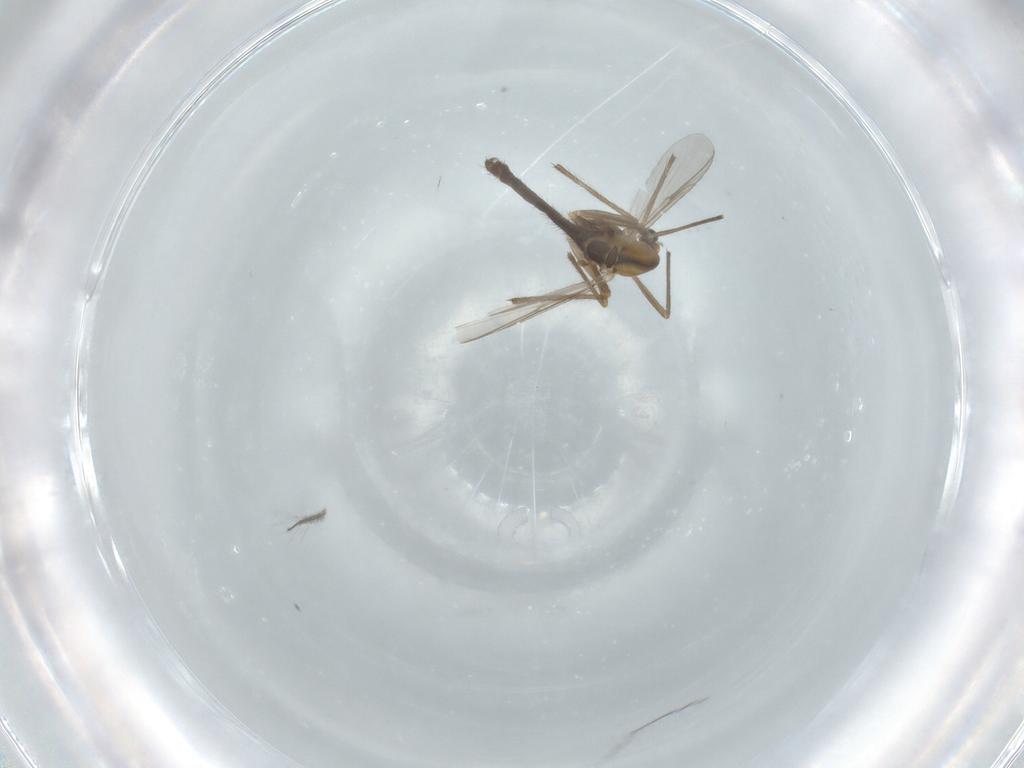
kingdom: Animalia
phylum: Arthropoda
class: Insecta
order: Diptera
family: Chironomidae
